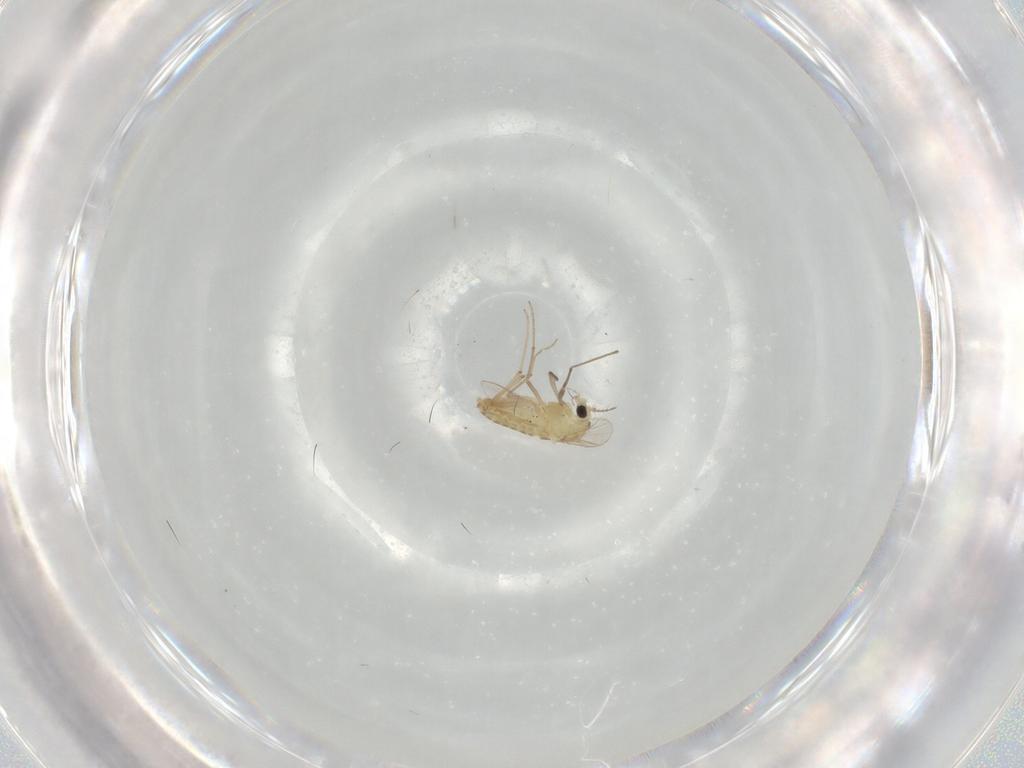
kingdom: Animalia
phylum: Arthropoda
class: Insecta
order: Diptera
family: Chironomidae
